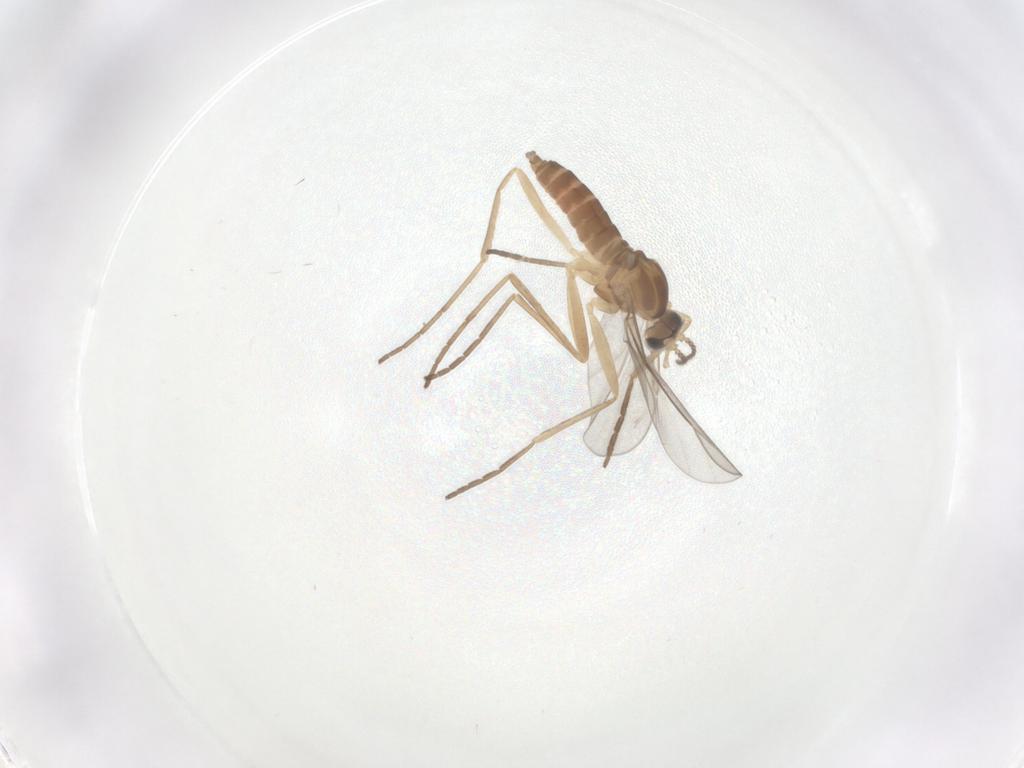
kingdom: Animalia
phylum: Arthropoda
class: Insecta
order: Diptera
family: Cecidomyiidae
